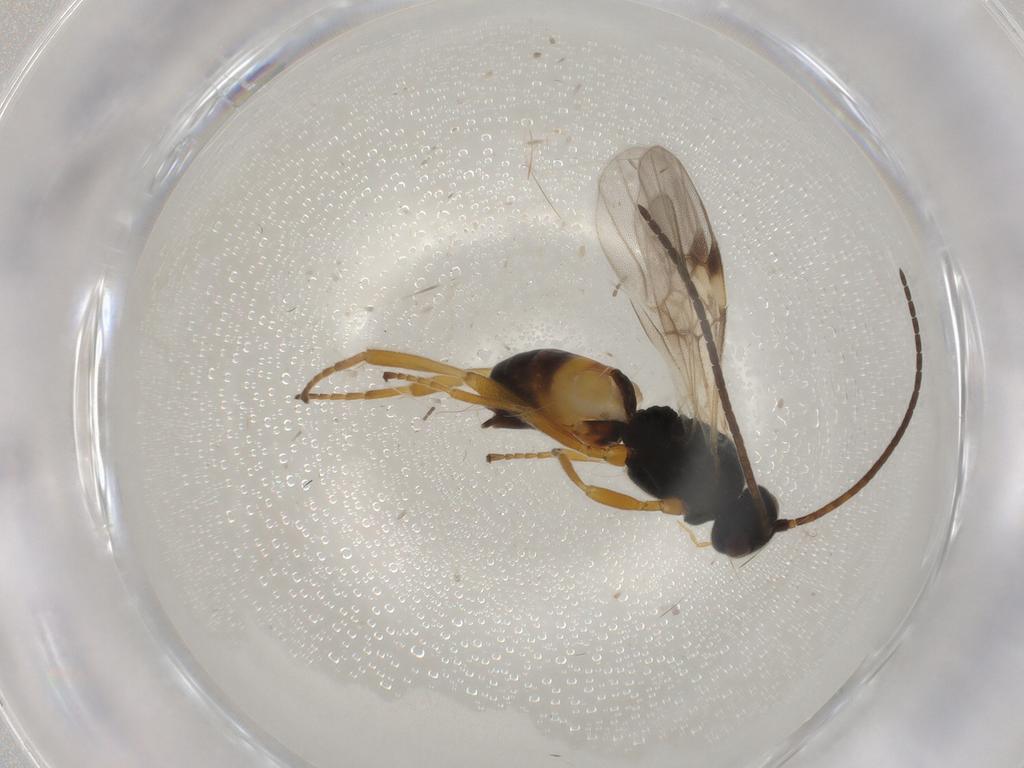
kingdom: Animalia
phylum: Arthropoda
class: Insecta
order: Hymenoptera
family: Braconidae
